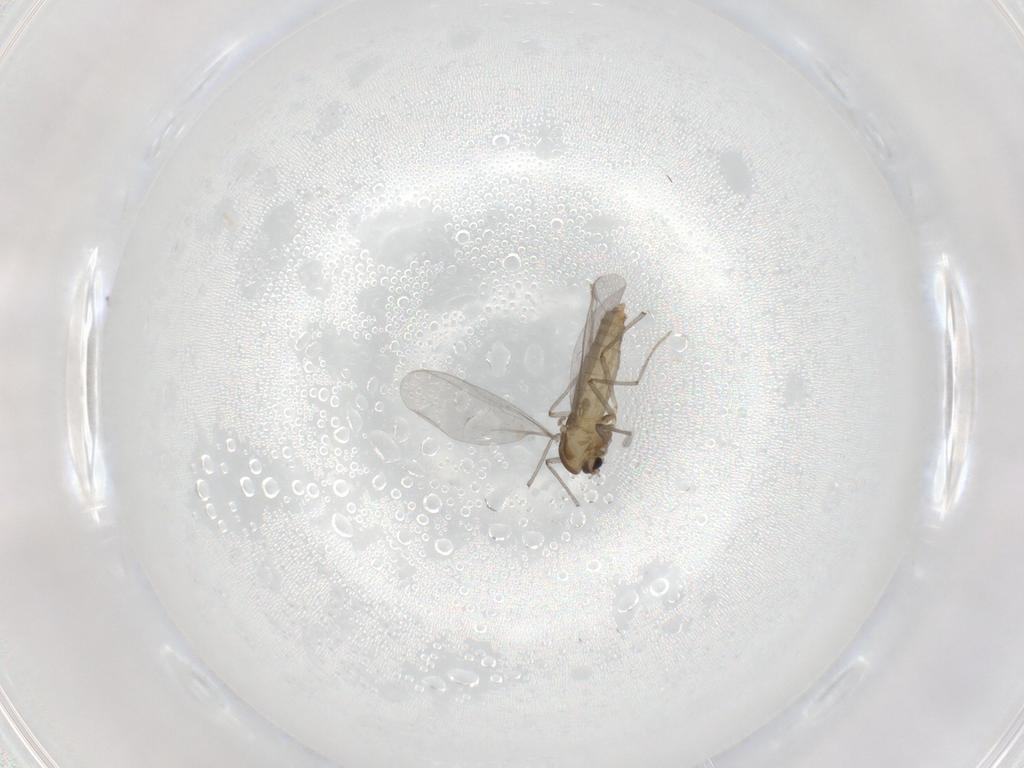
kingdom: Animalia
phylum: Arthropoda
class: Insecta
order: Diptera
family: Chironomidae
